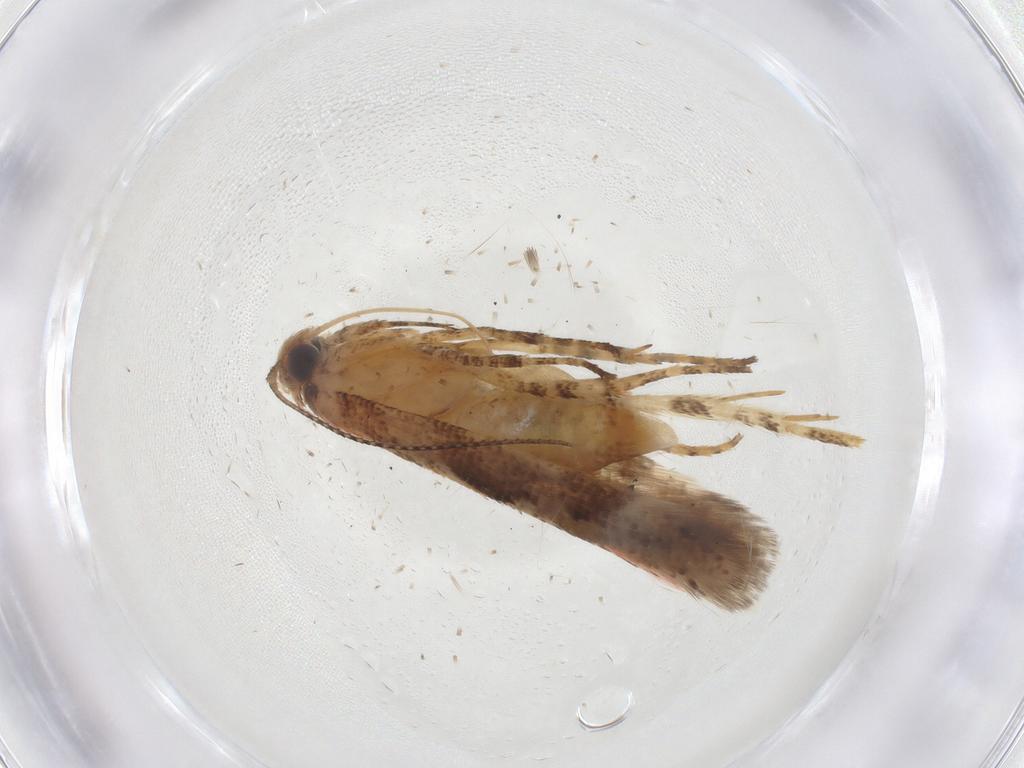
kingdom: Animalia
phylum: Arthropoda
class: Insecta
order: Lepidoptera
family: Gelechiidae
